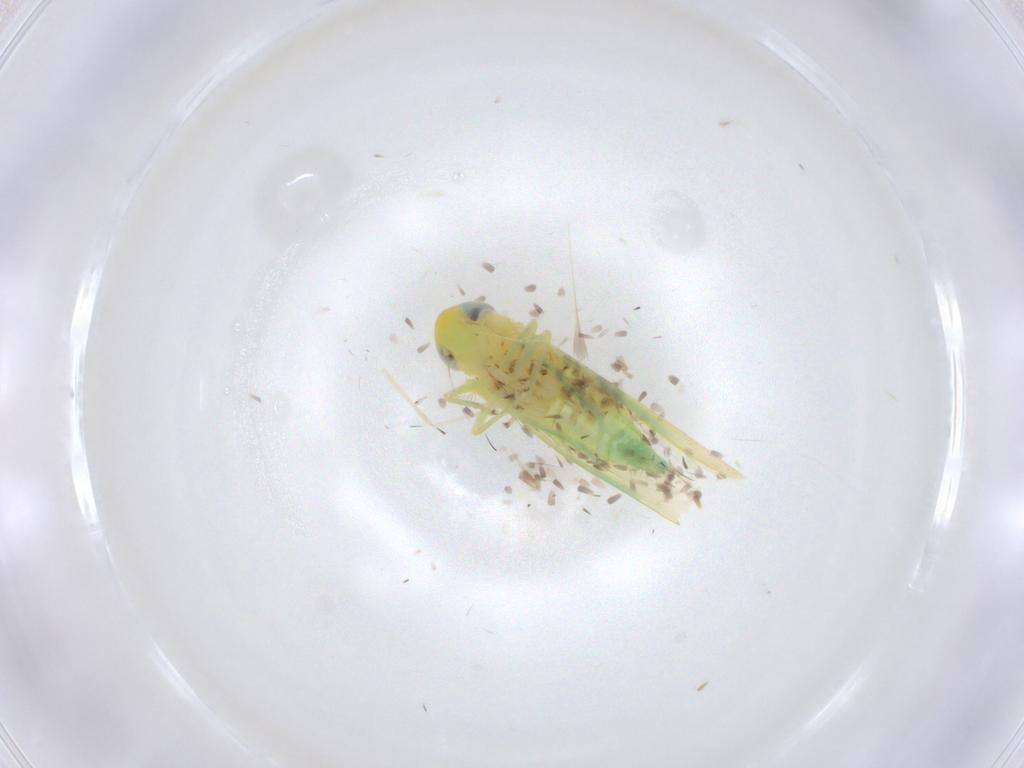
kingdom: Animalia
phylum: Arthropoda
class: Insecta
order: Hemiptera
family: Cicadellidae
